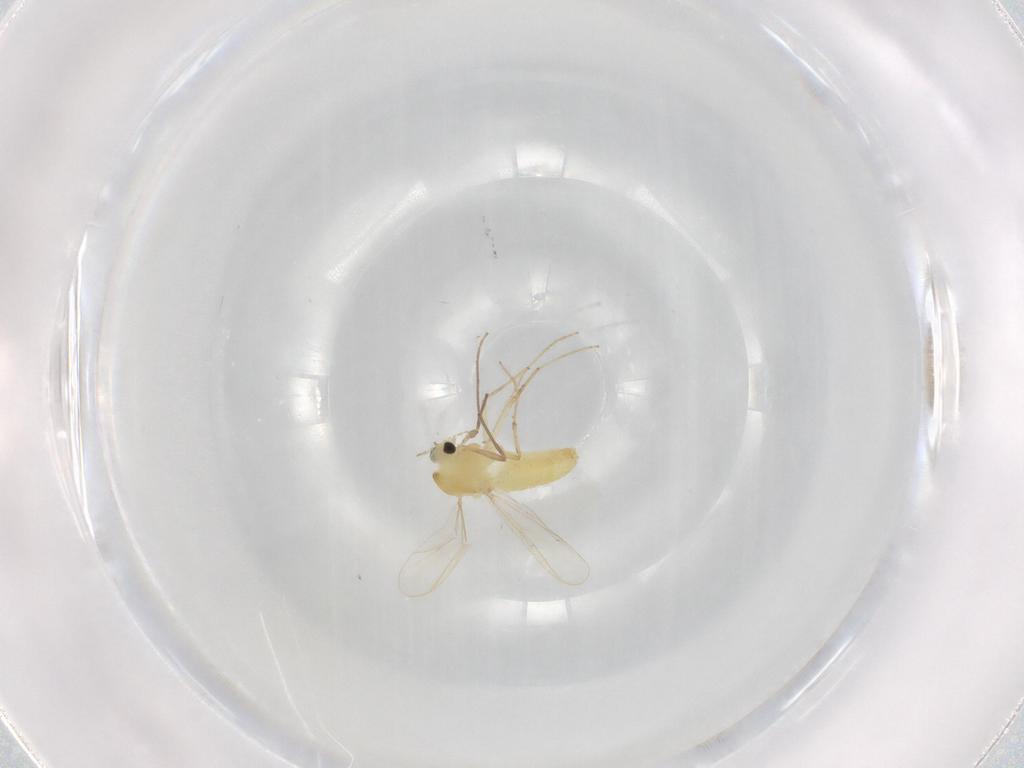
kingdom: Animalia
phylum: Arthropoda
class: Insecta
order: Diptera
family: Chironomidae
